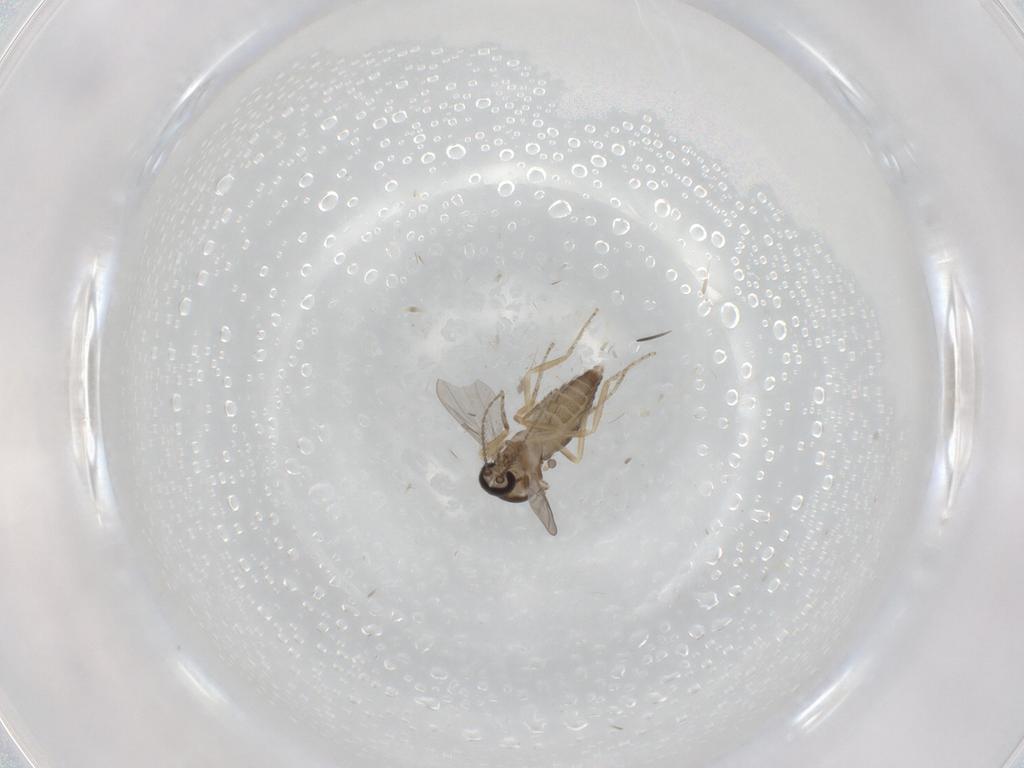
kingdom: Animalia
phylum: Arthropoda
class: Insecta
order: Diptera
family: Ceratopogonidae
